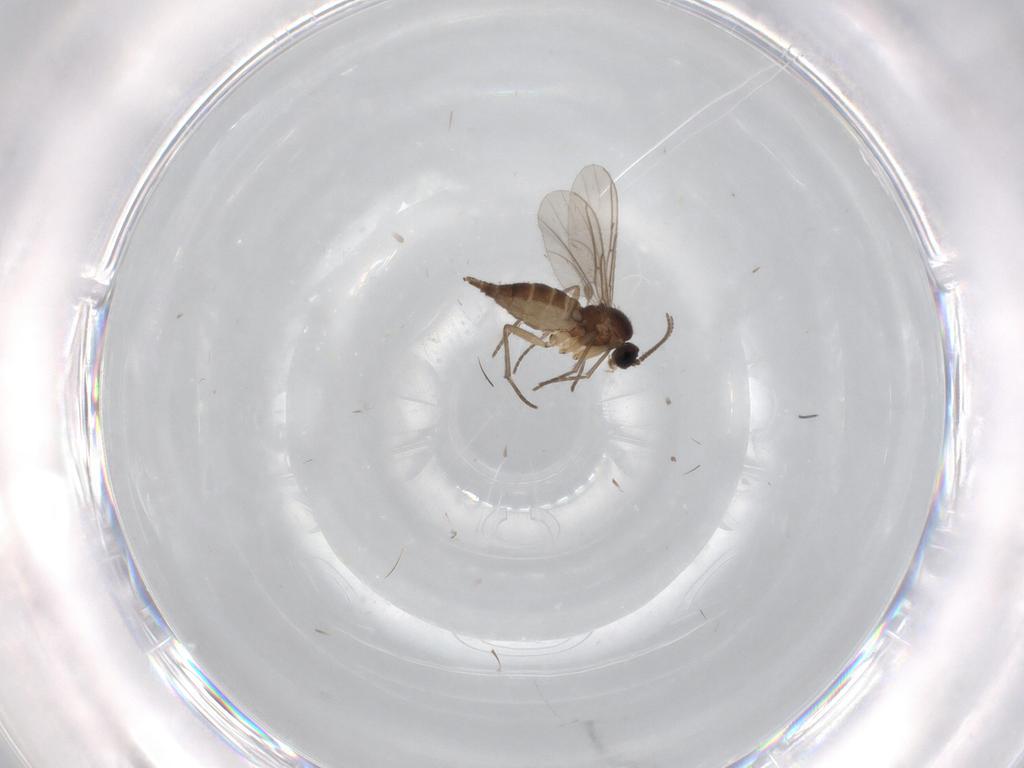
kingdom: Animalia
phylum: Arthropoda
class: Insecta
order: Diptera
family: Sciaridae
